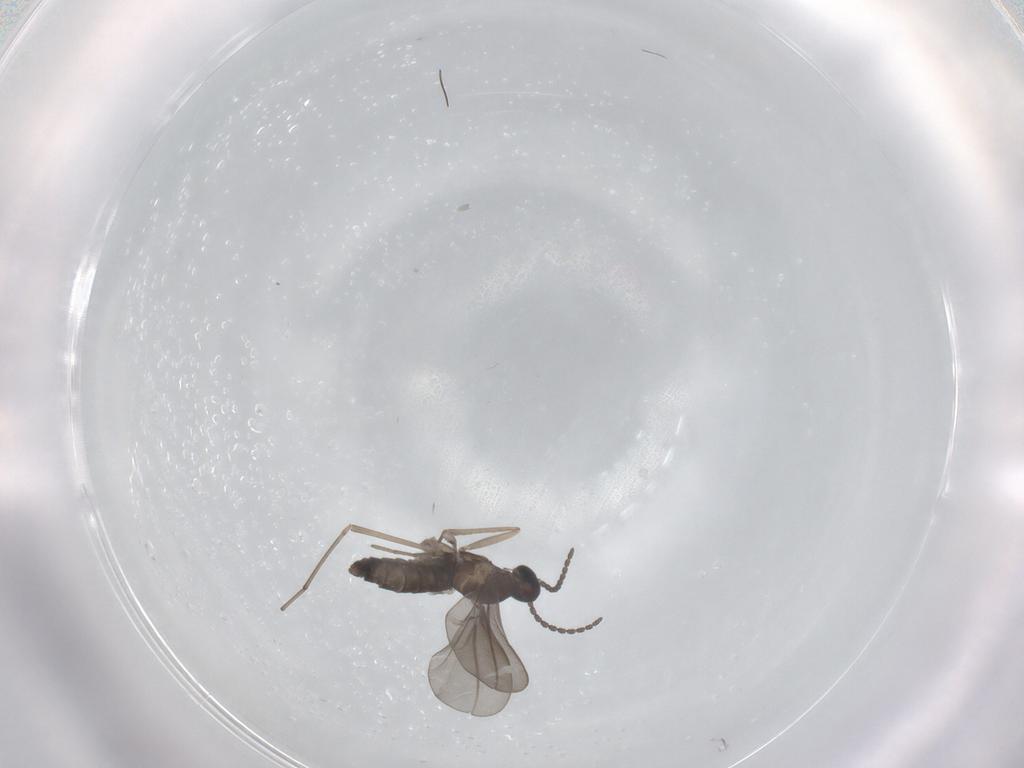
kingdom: Animalia
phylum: Arthropoda
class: Insecta
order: Diptera
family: Cecidomyiidae
